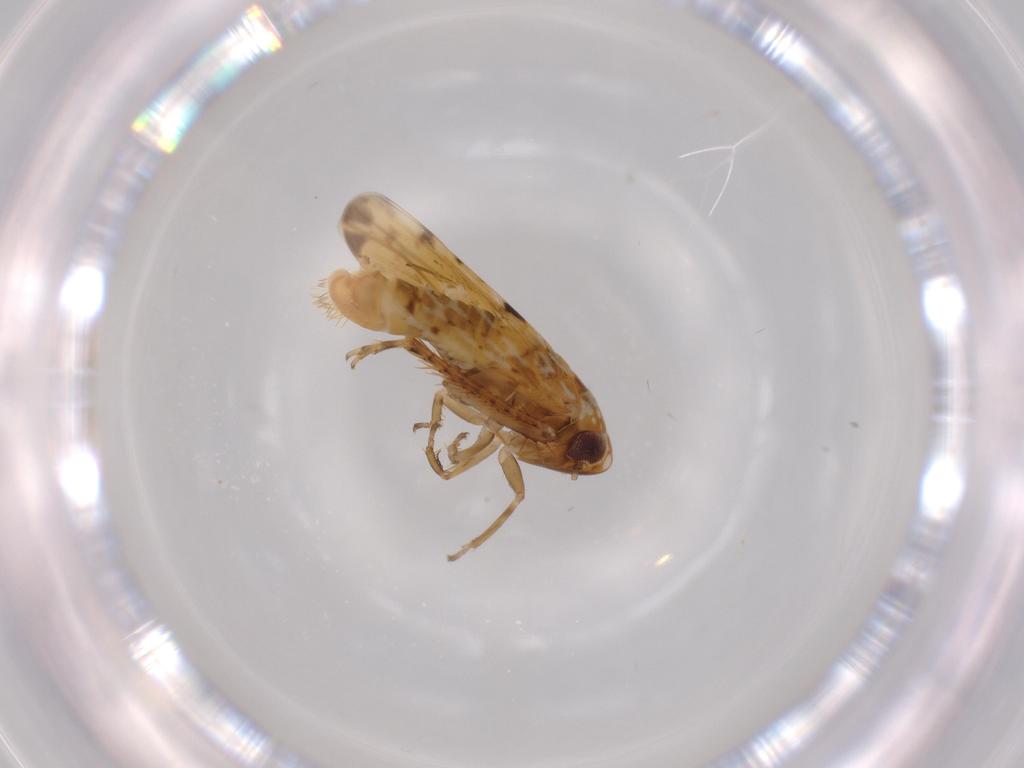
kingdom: Animalia
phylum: Arthropoda
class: Insecta
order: Hemiptera
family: Cicadellidae
